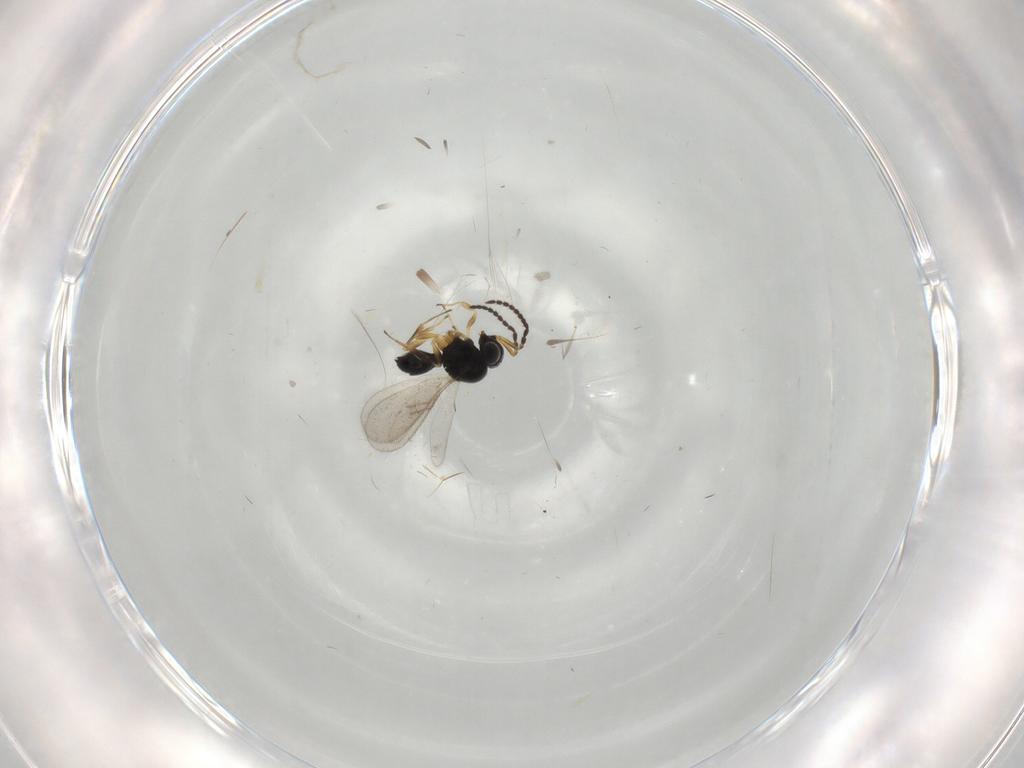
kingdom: Animalia
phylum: Arthropoda
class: Insecta
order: Hymenoptera
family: Scelionidae
